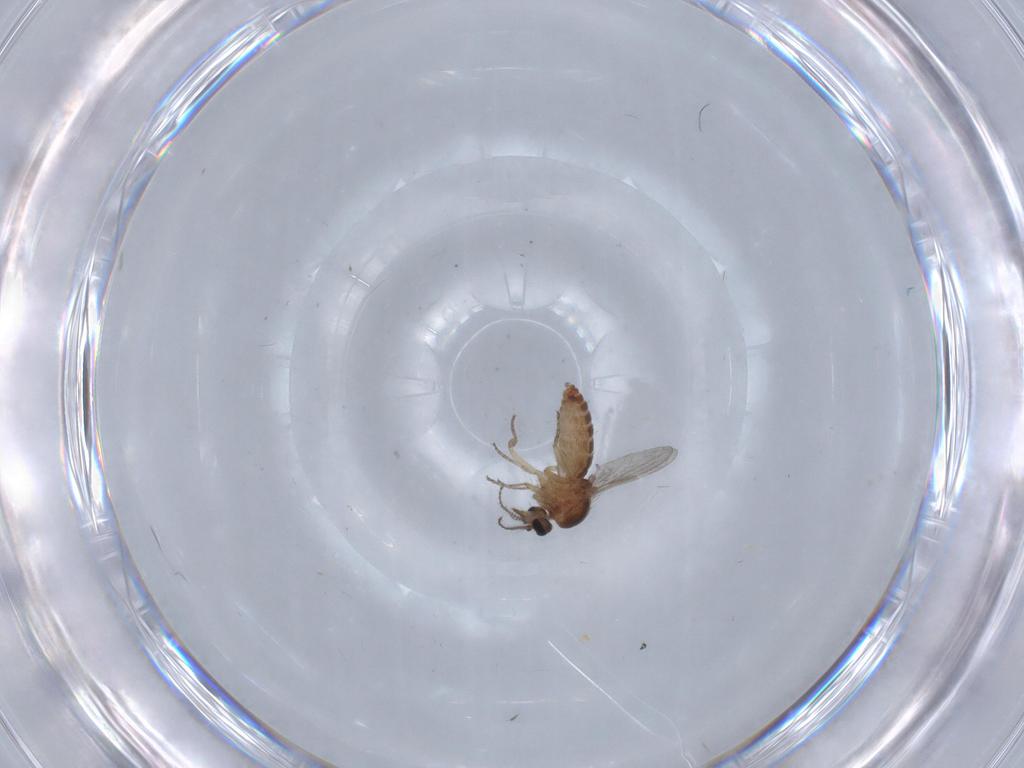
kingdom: Animalia
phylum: Arthropoda
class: Insecta
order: Diptera
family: Ceratopogonidae
